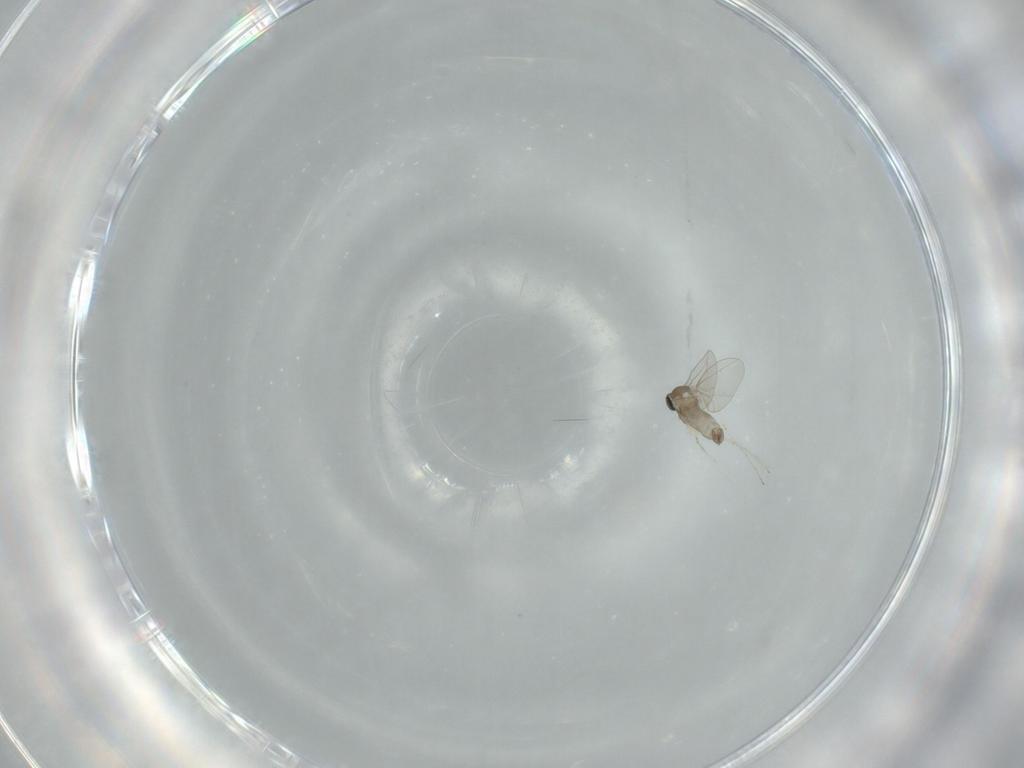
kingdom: Animalia
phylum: Arthropoda
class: Insecta
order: Diptera
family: Cecidomyiidae
